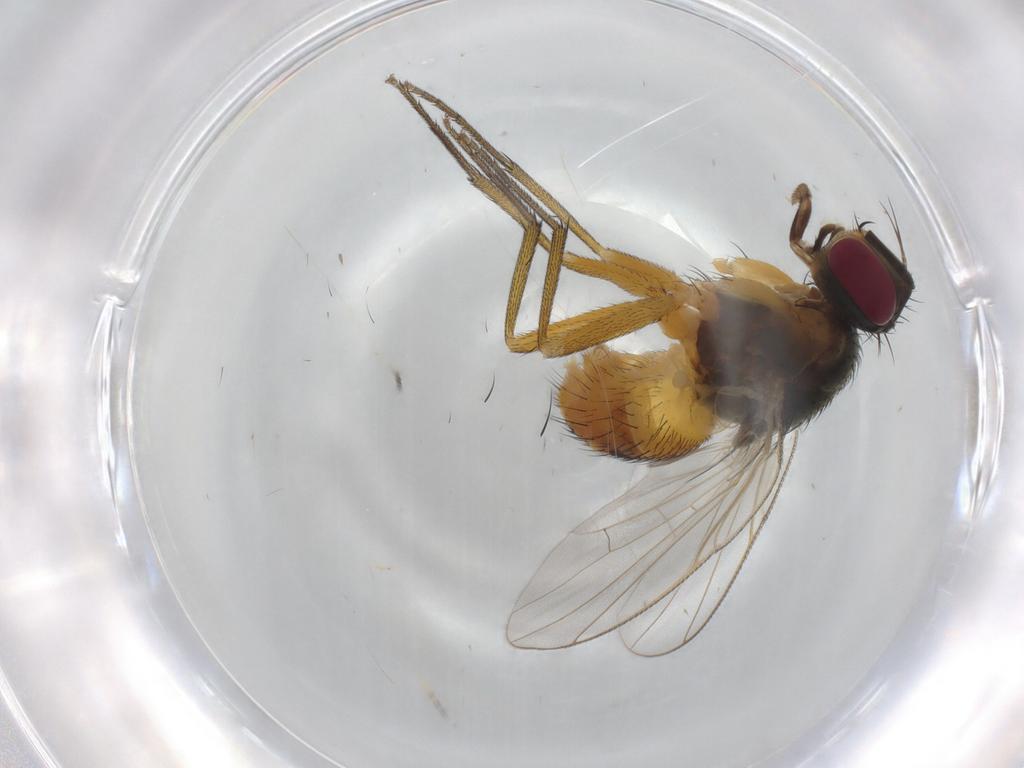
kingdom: Animalia
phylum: Arthropoda
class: Insecta
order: Diptera
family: Muscidae
